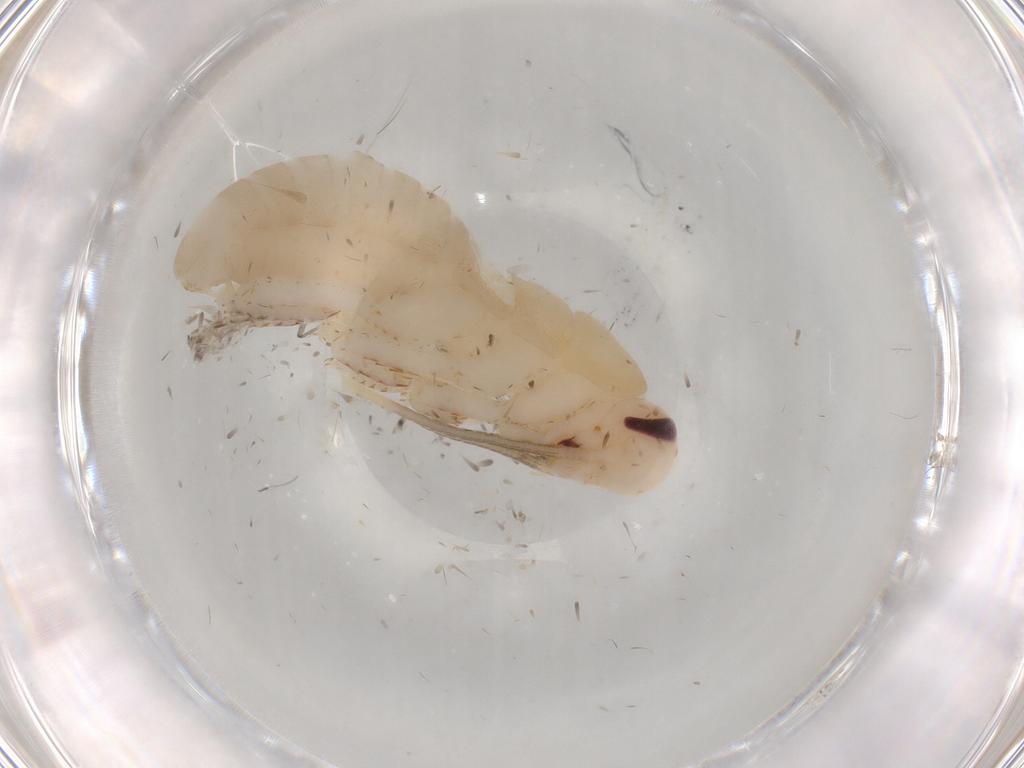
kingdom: Animalia
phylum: Arthropoda
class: Insecta
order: Blattodea
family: Blaberidae
